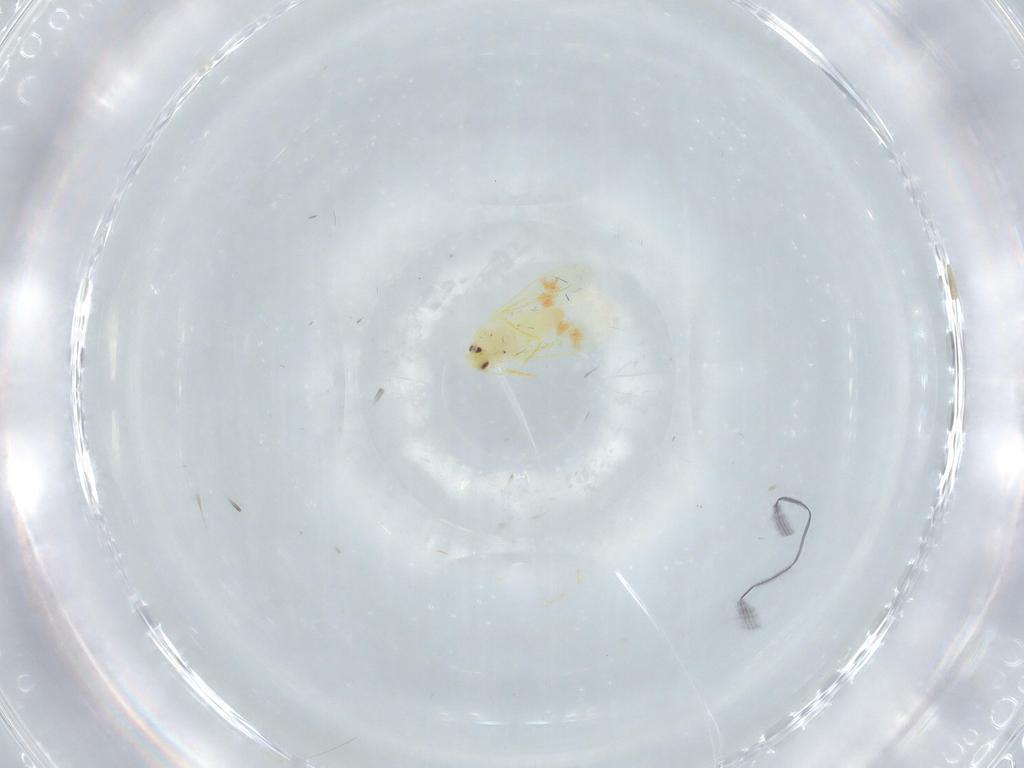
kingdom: Animalia
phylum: Arthropoda
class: Insecta
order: Hemiptera
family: Aleyrodidae
